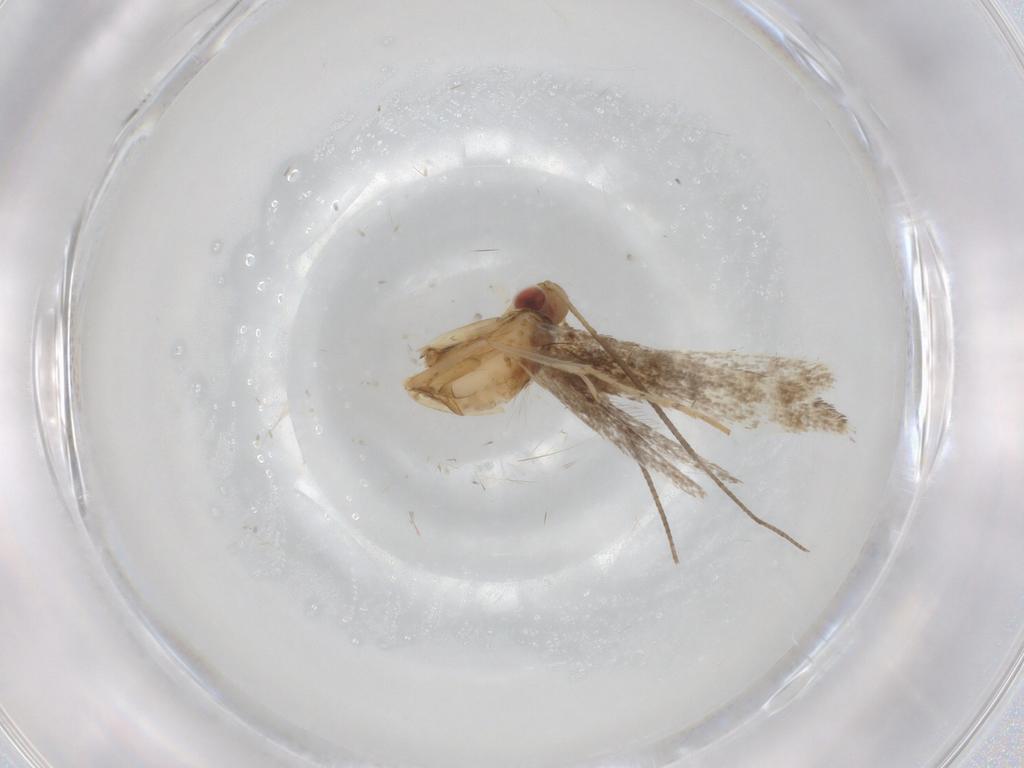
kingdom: Animalia
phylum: Arthropoda
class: Insecta
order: Lepidoptera
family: Gracillariidae
